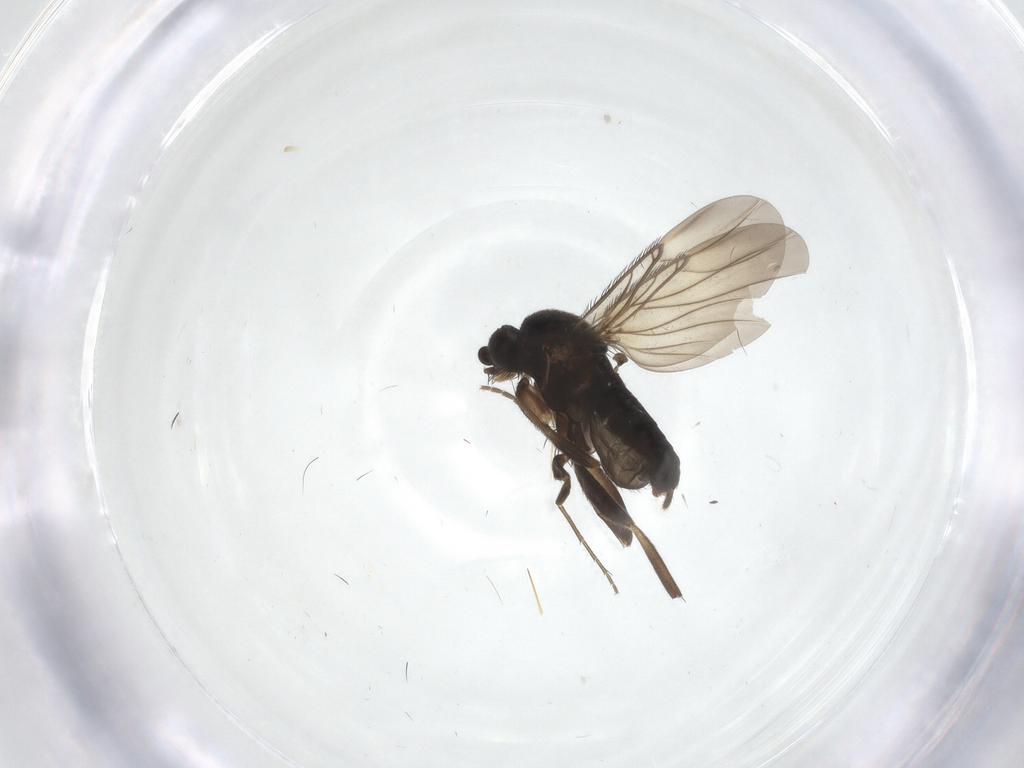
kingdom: Animalia
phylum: Arthropoda
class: Insecta
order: Diptera
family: Phoridae
